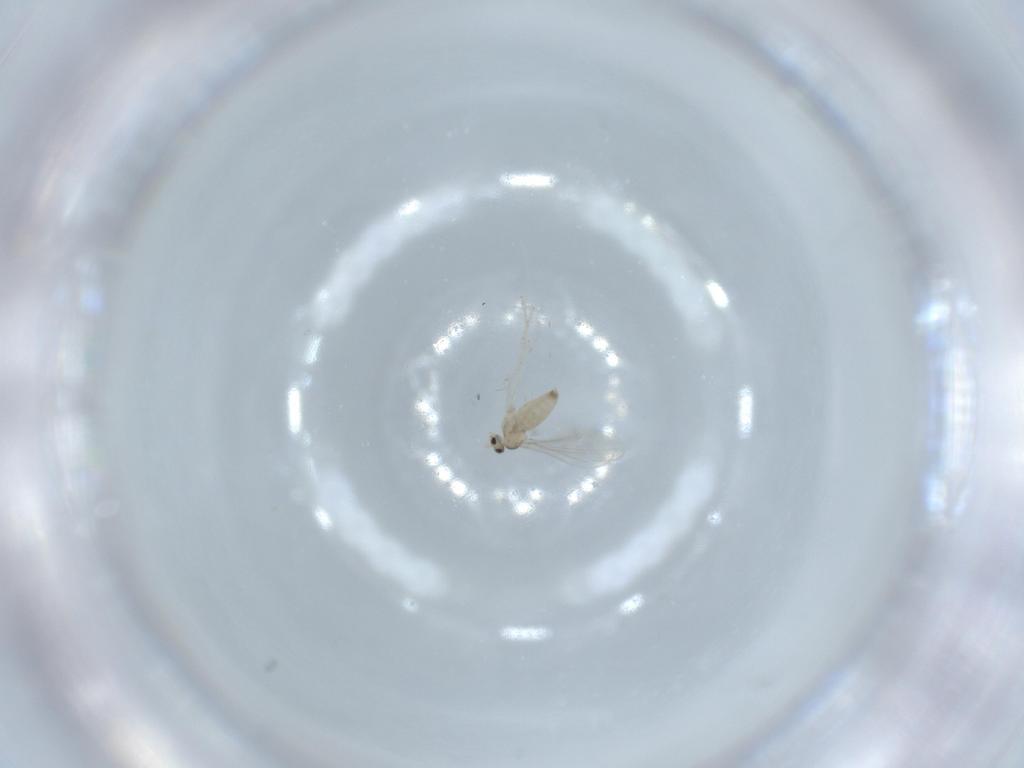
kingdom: Animalia
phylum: Arthropoda
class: Insecta
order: Diptera
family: Cecidomyiidae
